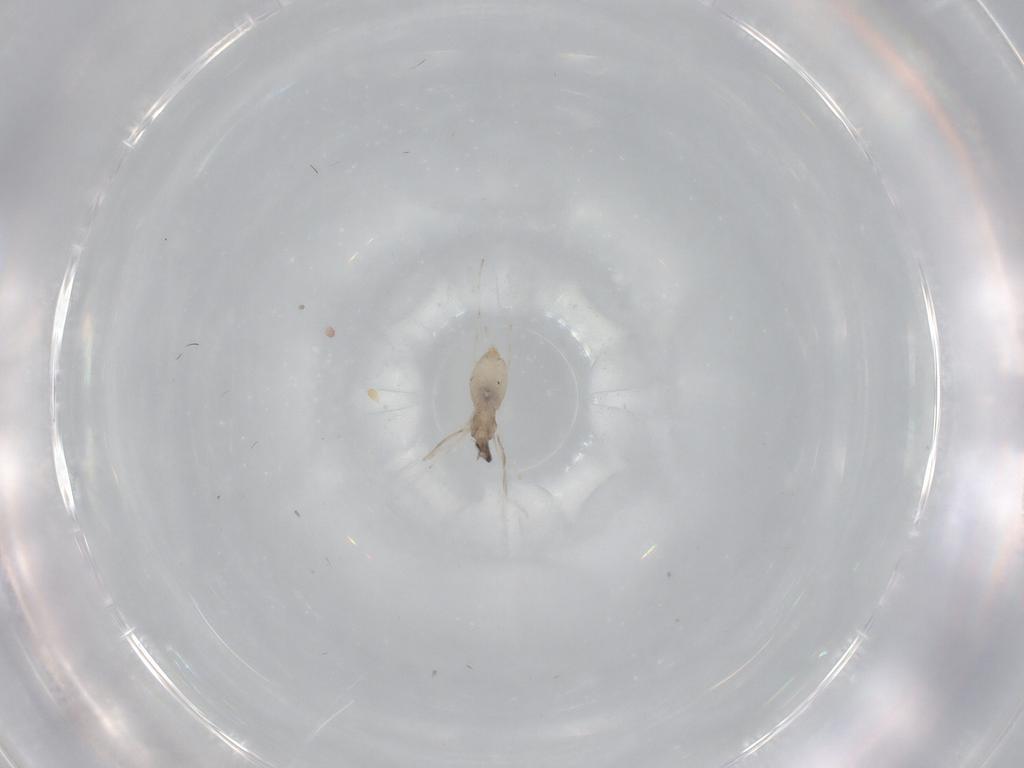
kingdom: Animalia
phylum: Arthropoda
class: Insecta
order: Diptera
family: Cecidomyiidae
